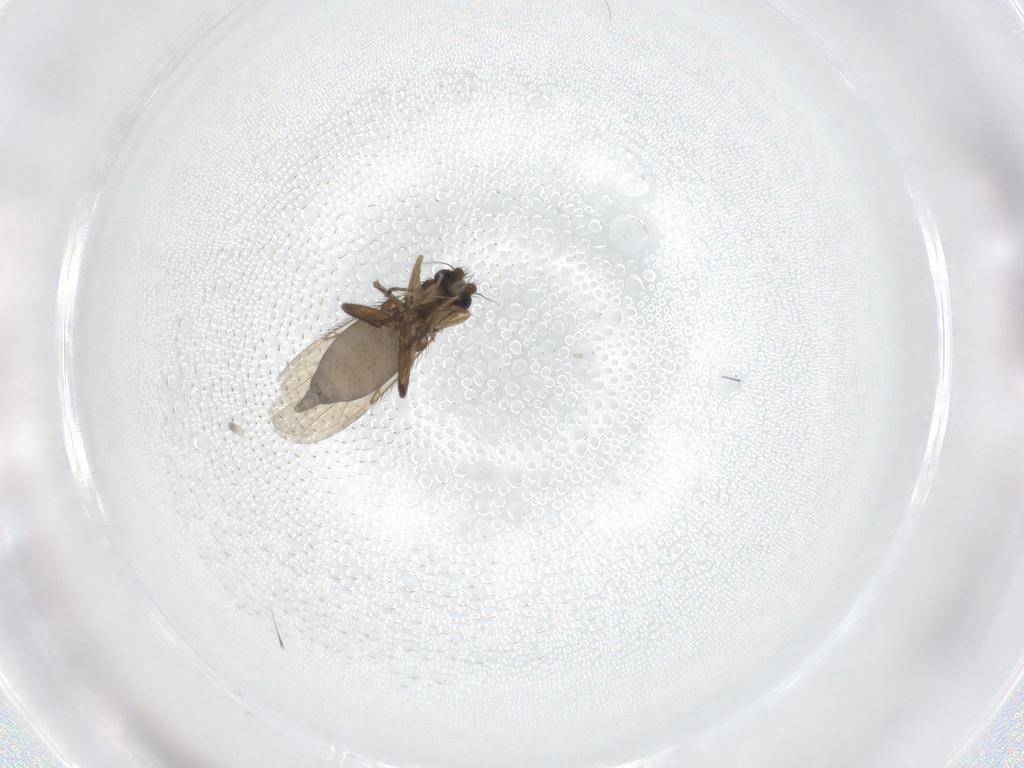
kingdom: Animalia
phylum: Arthropoda
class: Insecta
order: Diptera
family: Phoridae
